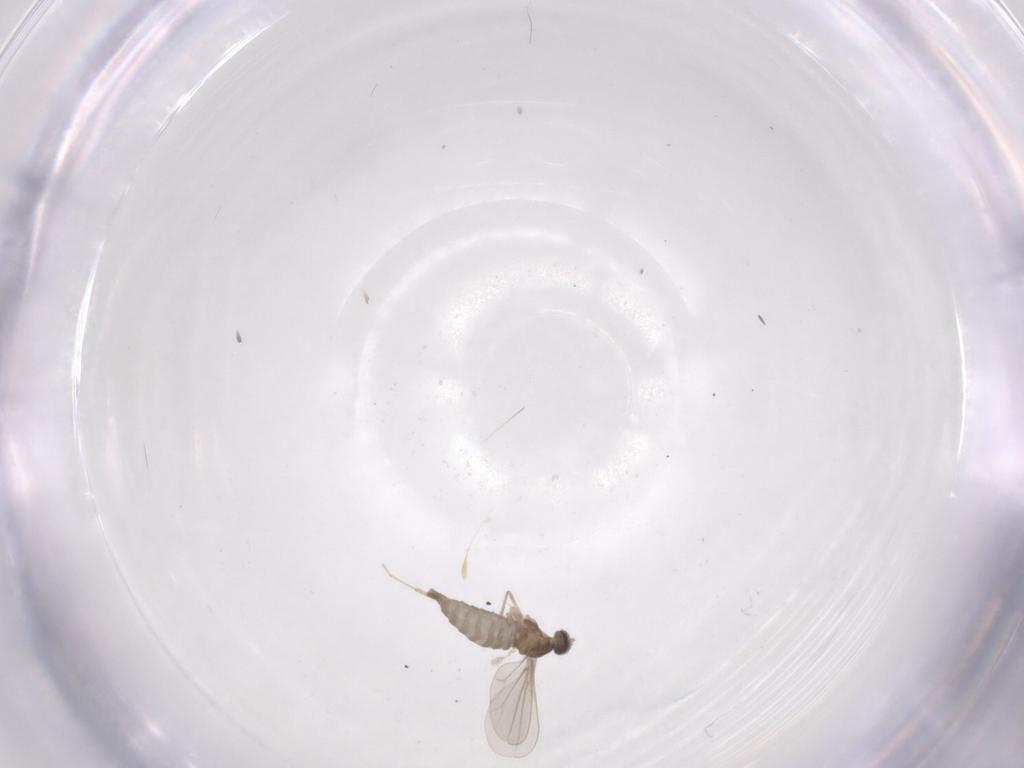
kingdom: Animalia
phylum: Arthropoda
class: Insecta
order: Diptera
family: Cecidomyiidae
